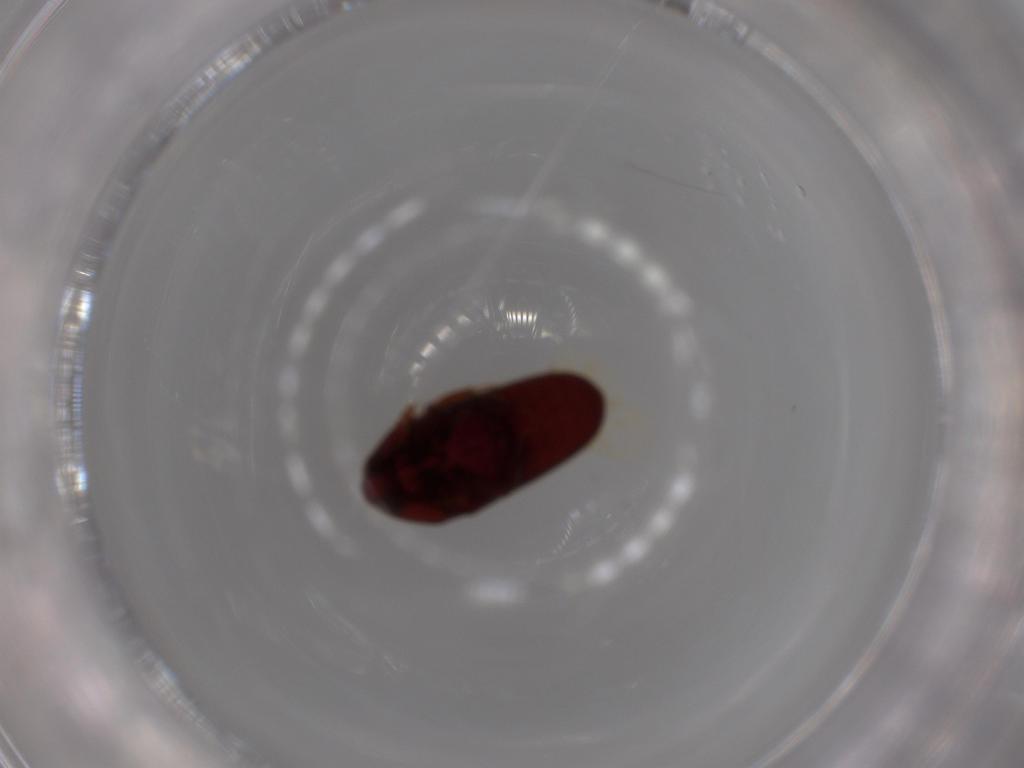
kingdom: Animalia
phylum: Arthropoda
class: Insecta
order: Coleoptera
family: Throscidae
